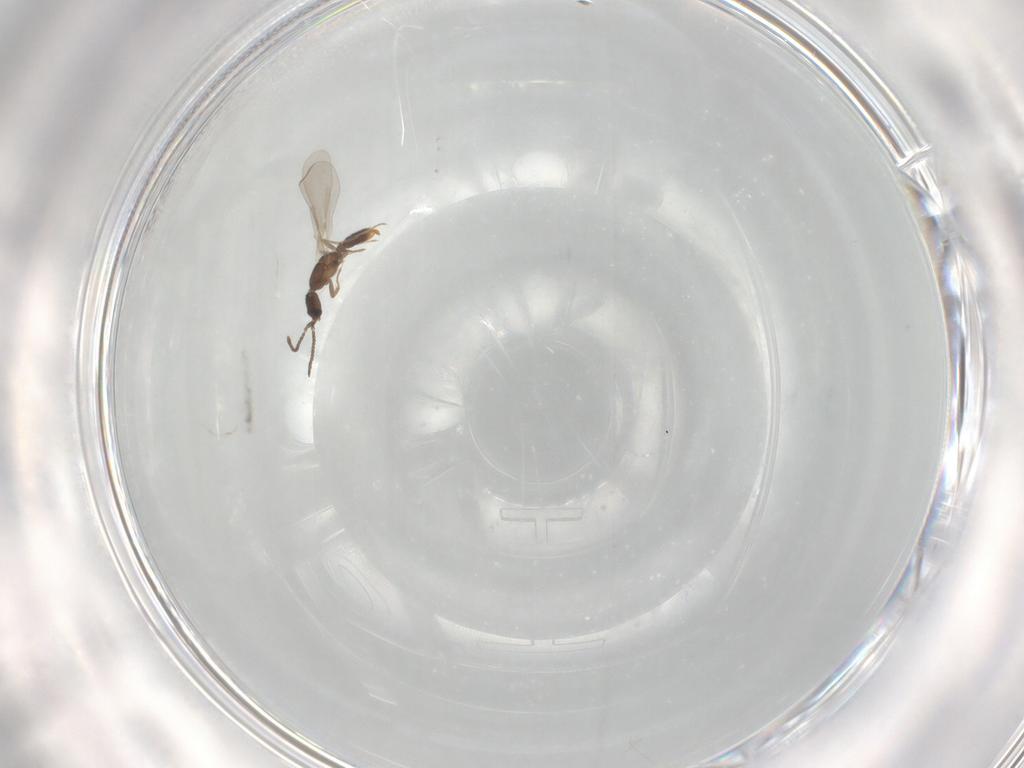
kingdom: Animalia
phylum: Arthropoda
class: Insecta
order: Hymenoptera
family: Formicidae
